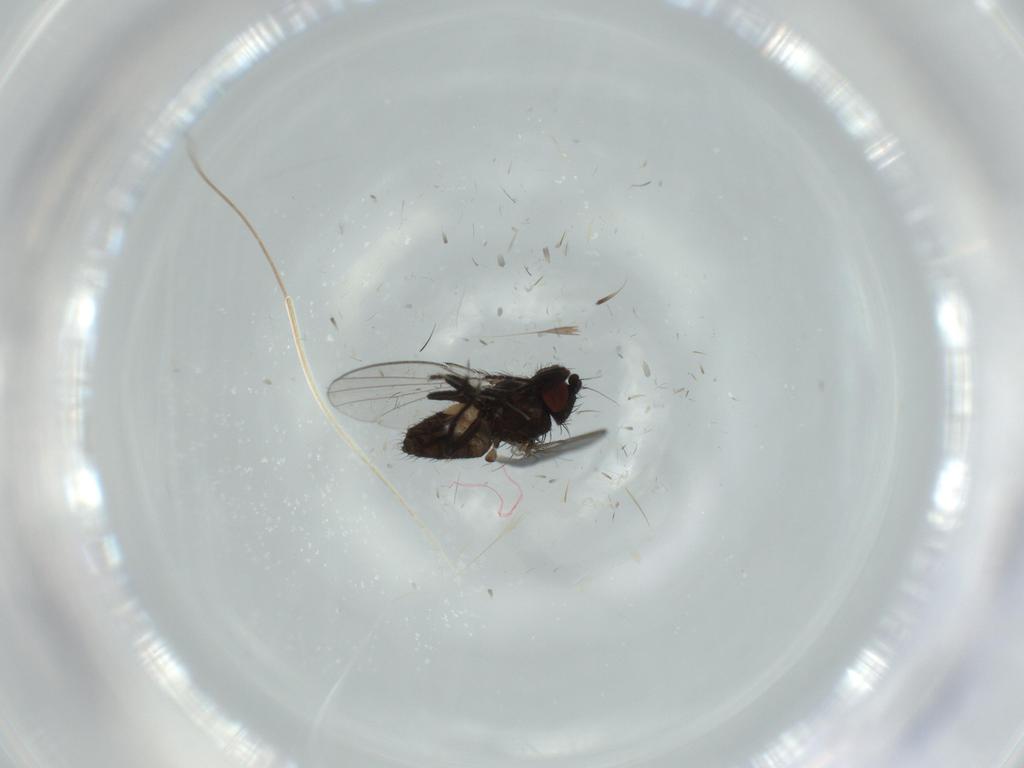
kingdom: Animalia
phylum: Arthropoda
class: Insecta
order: Diptera
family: Milichiidae
